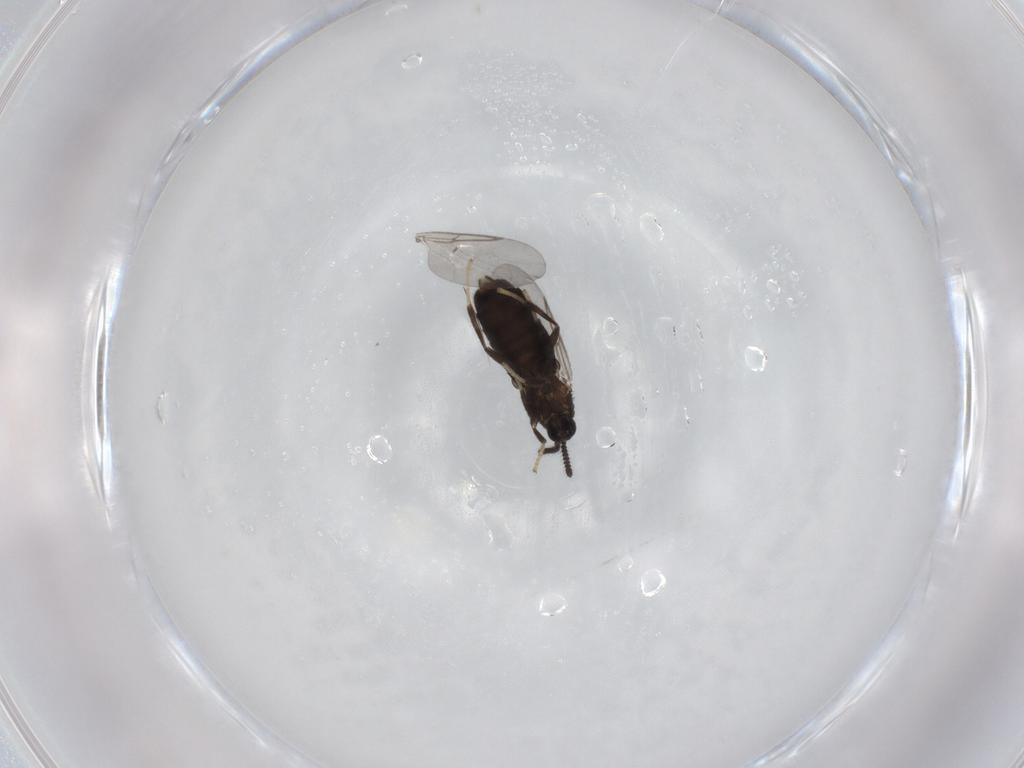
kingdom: Animalia
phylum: Arthropoda
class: Insecta
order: Diptera
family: Scatopsidae
